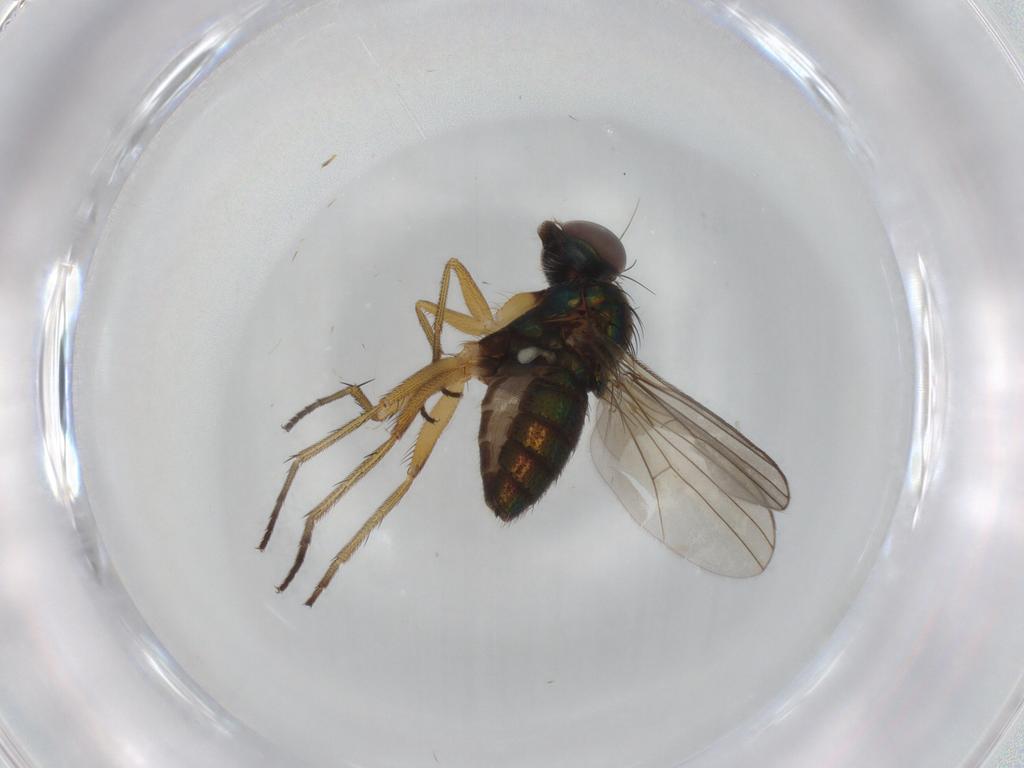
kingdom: Animalia
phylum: Arthropoda
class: Insecta
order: Diptera
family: Dolichopodidae
